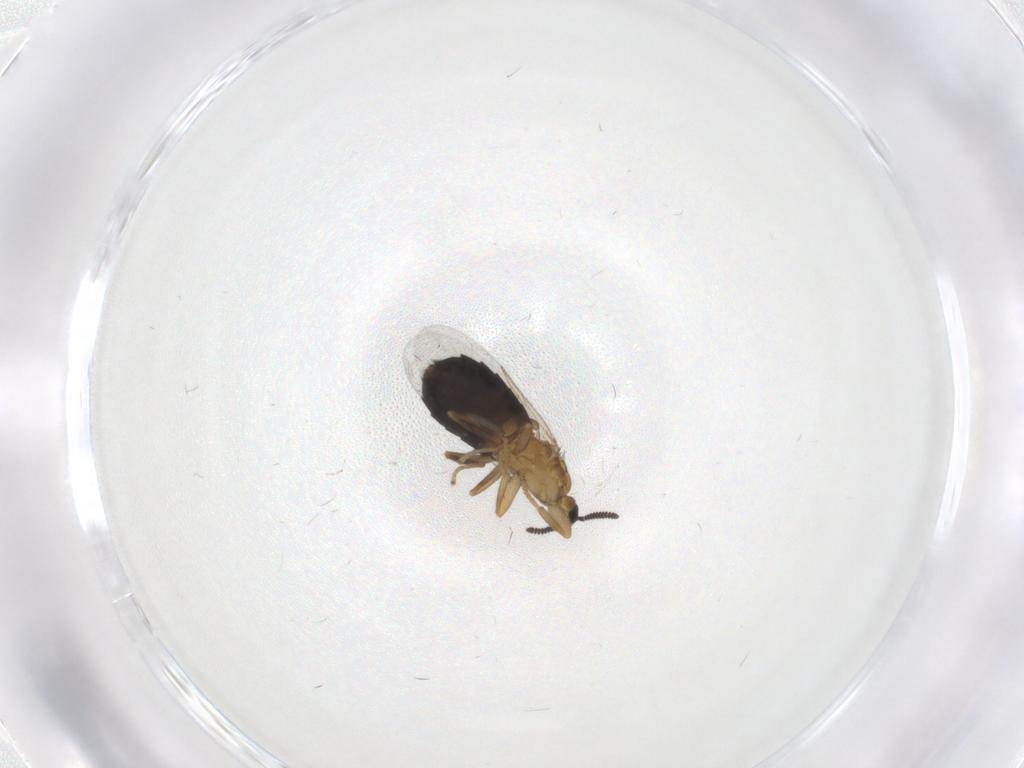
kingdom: Animalia
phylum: Arthropoda
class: Insecta
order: Diptera
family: Scatopsidae
